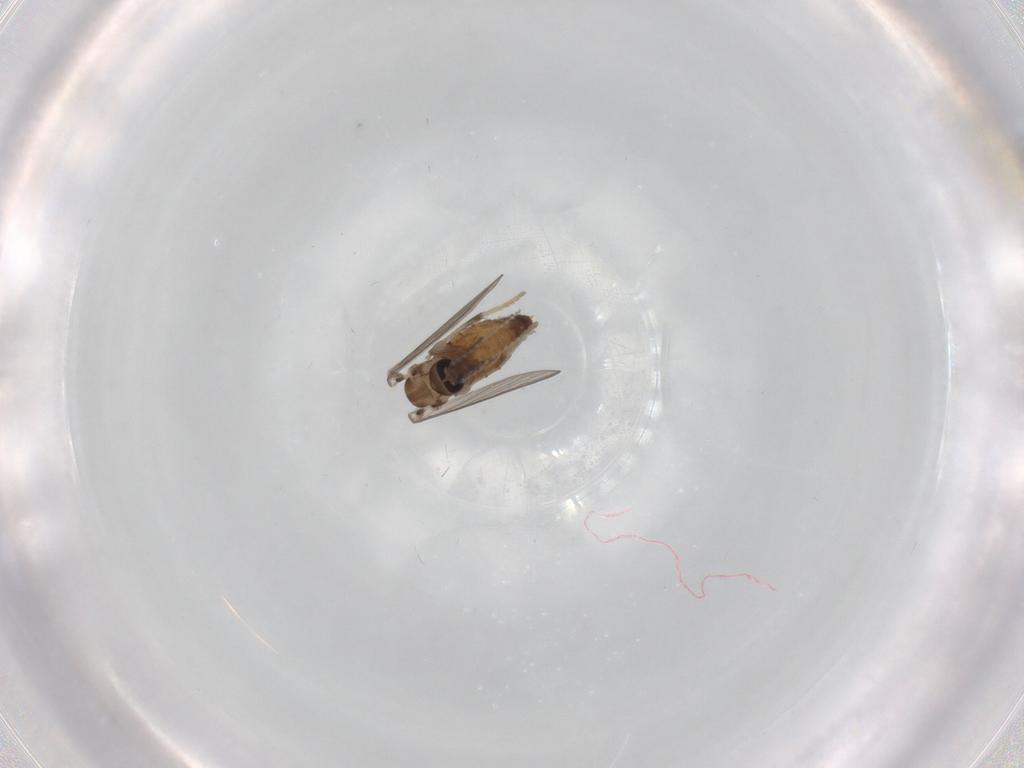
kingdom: Animalia
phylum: Arthropoda
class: Insecta
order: Diptera
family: Psychodidae
